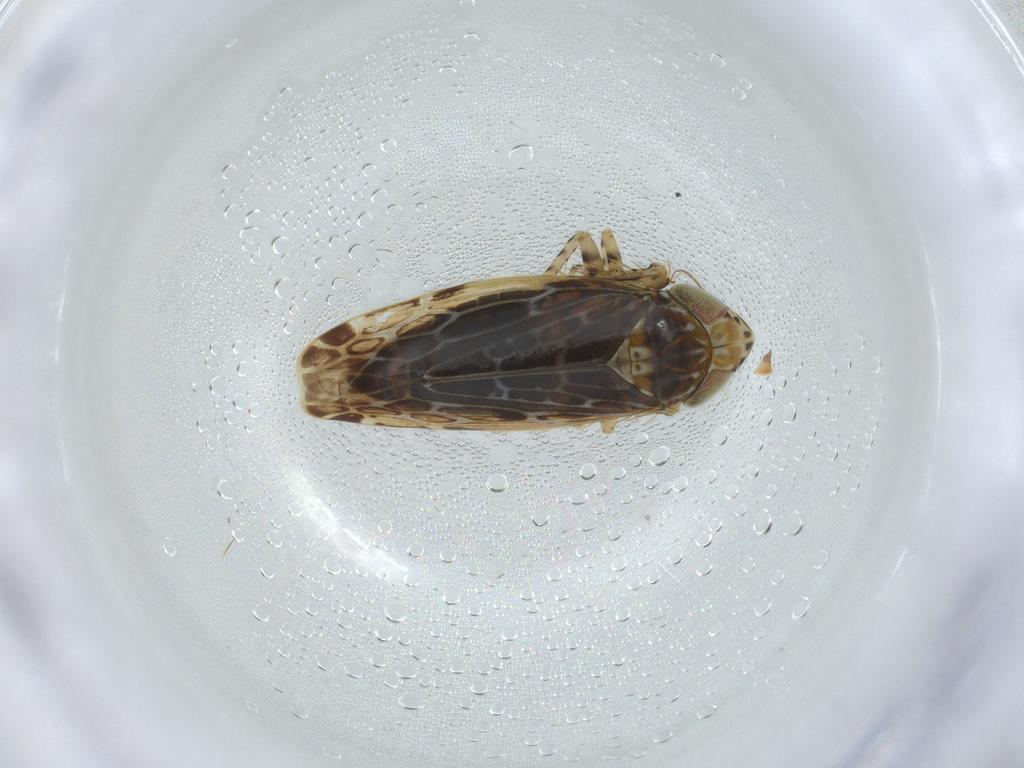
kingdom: Animalia
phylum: Arthropoda
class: Insecta
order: Hemiptera
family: Cicadellidae
